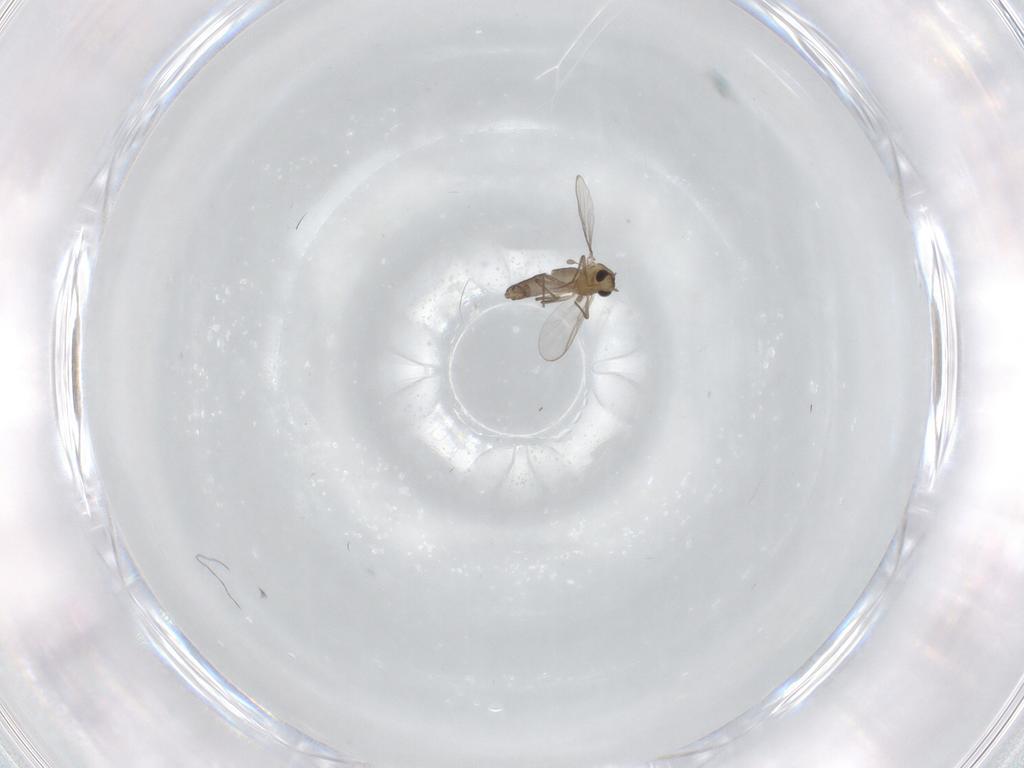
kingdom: Animalia
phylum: Arthropoda
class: Insecta
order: Diptera
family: Chironomidae
